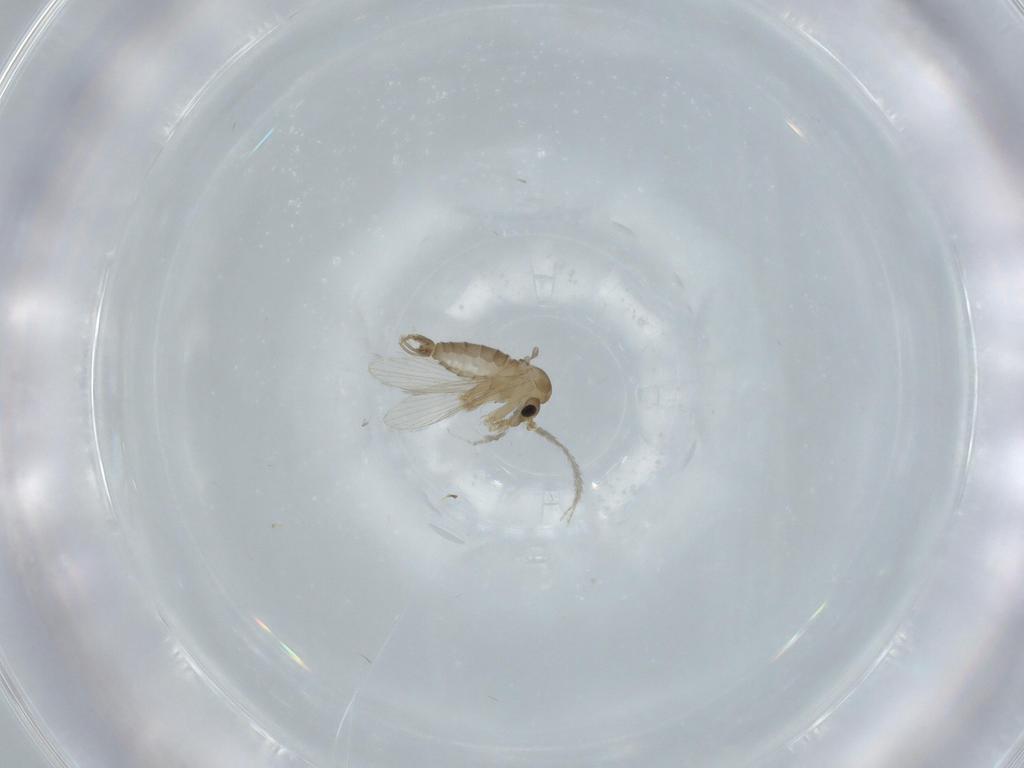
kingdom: Animalia
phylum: Arthropoda
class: Insecta
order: Diptera
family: Psychodidae
